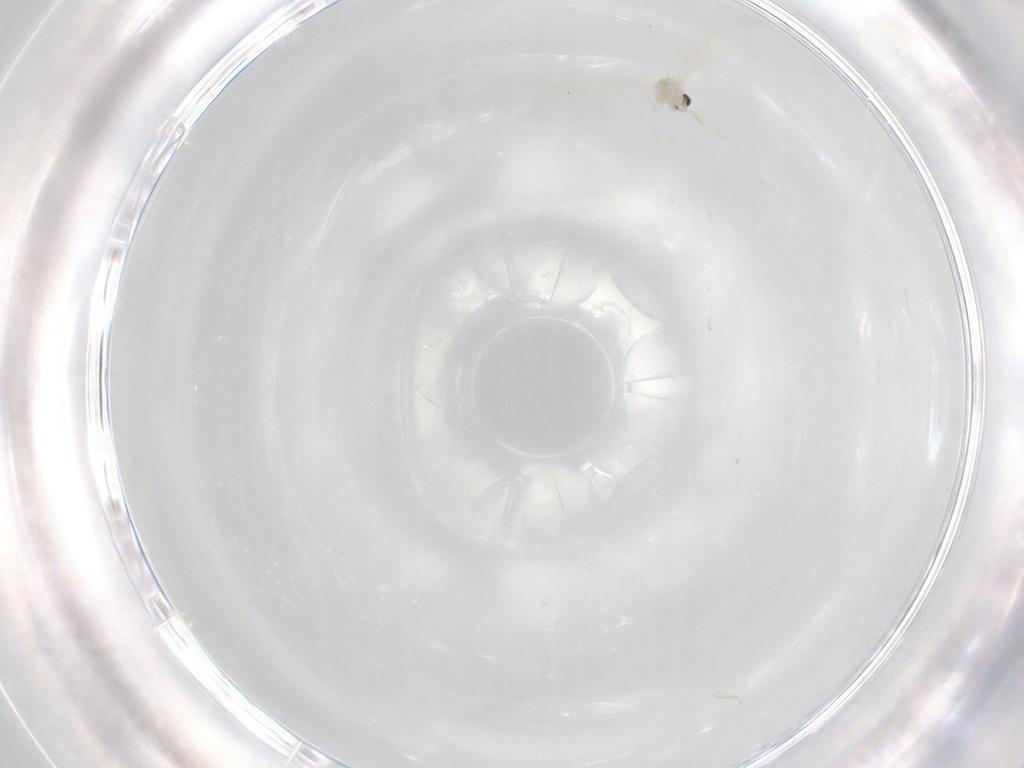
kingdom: Animalia
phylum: Arthropoda
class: Insecta
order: Diptera
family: Cecidomyiidae
